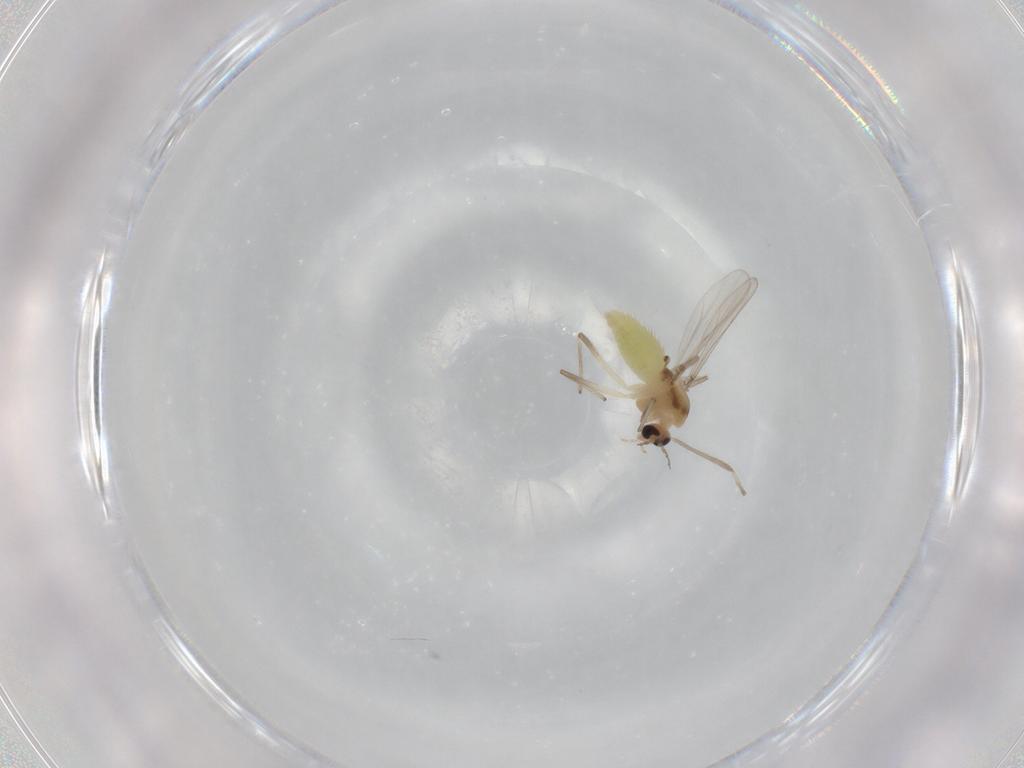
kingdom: Animalia
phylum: Arthropoda
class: Insecta
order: Diptera
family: Chironomidae
